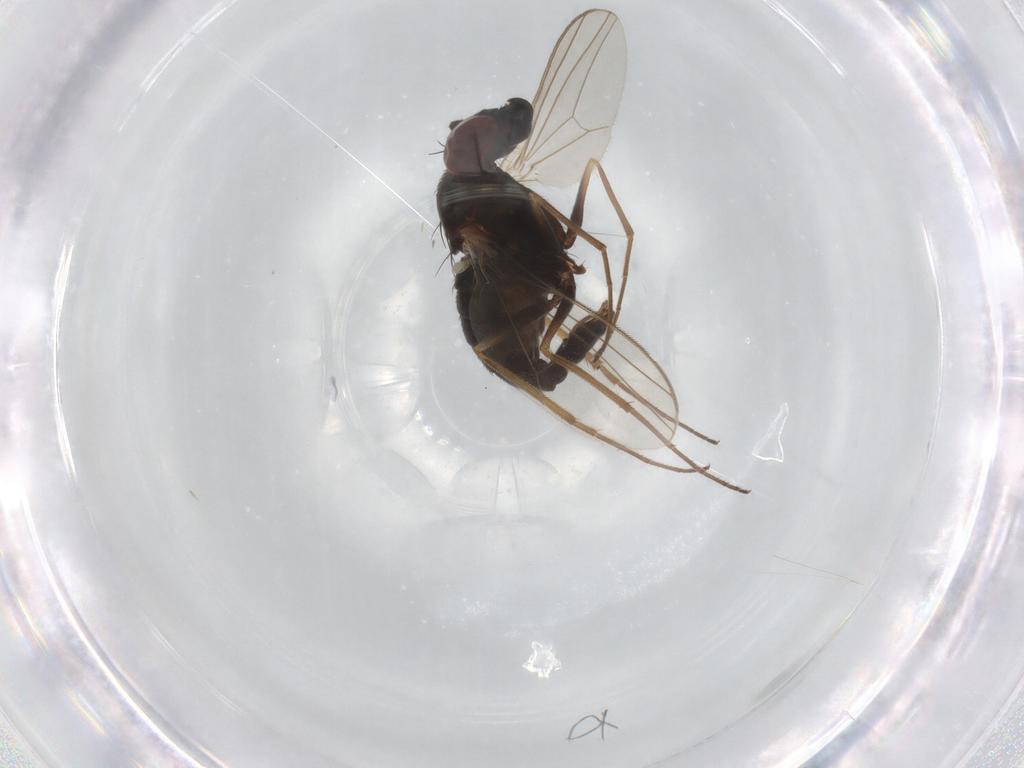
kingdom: Animalia
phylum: Arthropoda
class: Insecta
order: Diptera
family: Dolichopodidae
